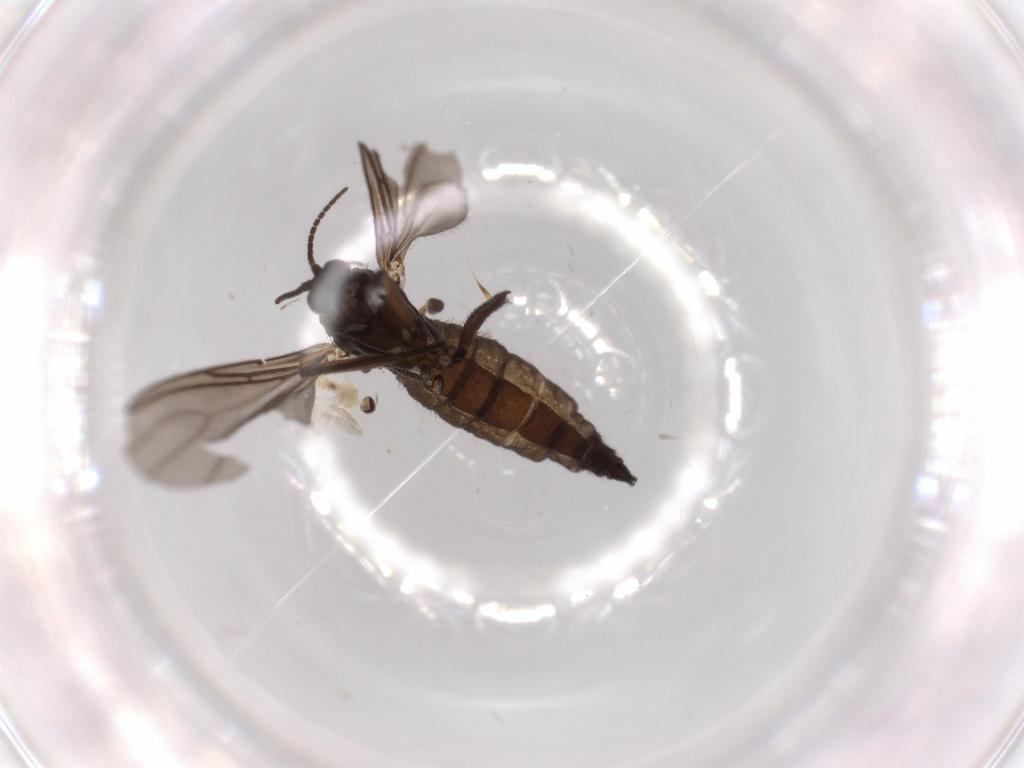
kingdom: Animalia
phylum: Arthropoda
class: Insecta
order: Diptera
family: Sciaridae
